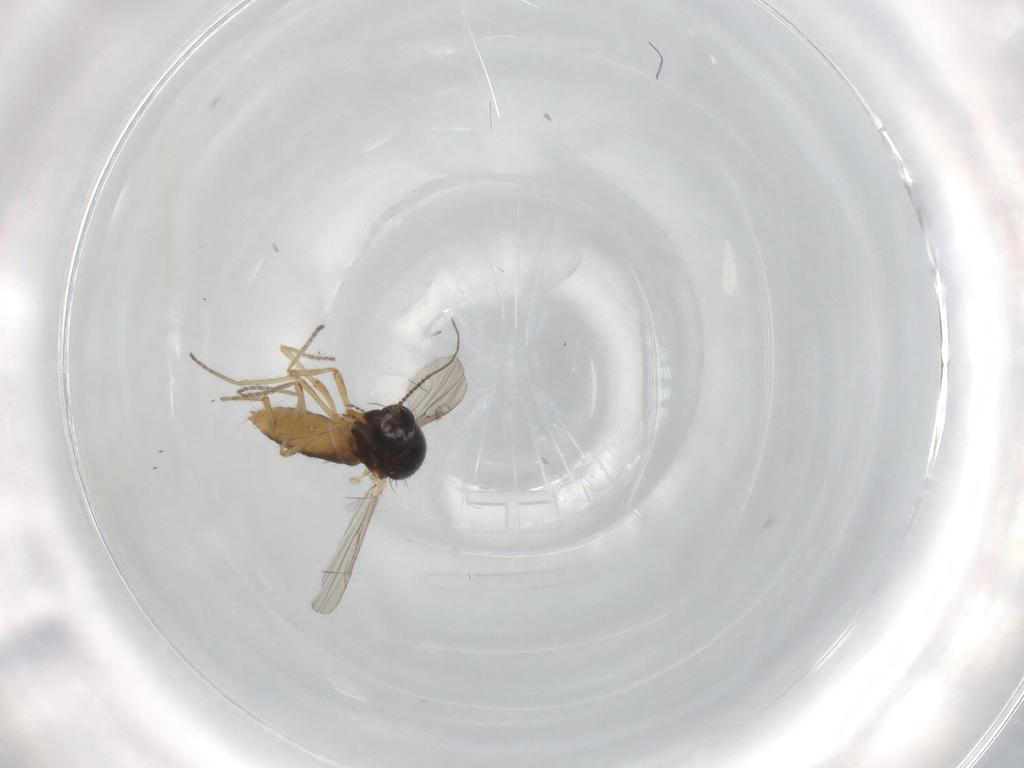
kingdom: Animalia
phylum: Arthropoda
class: Insecta
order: Diptera
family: Ceratopogonidae
